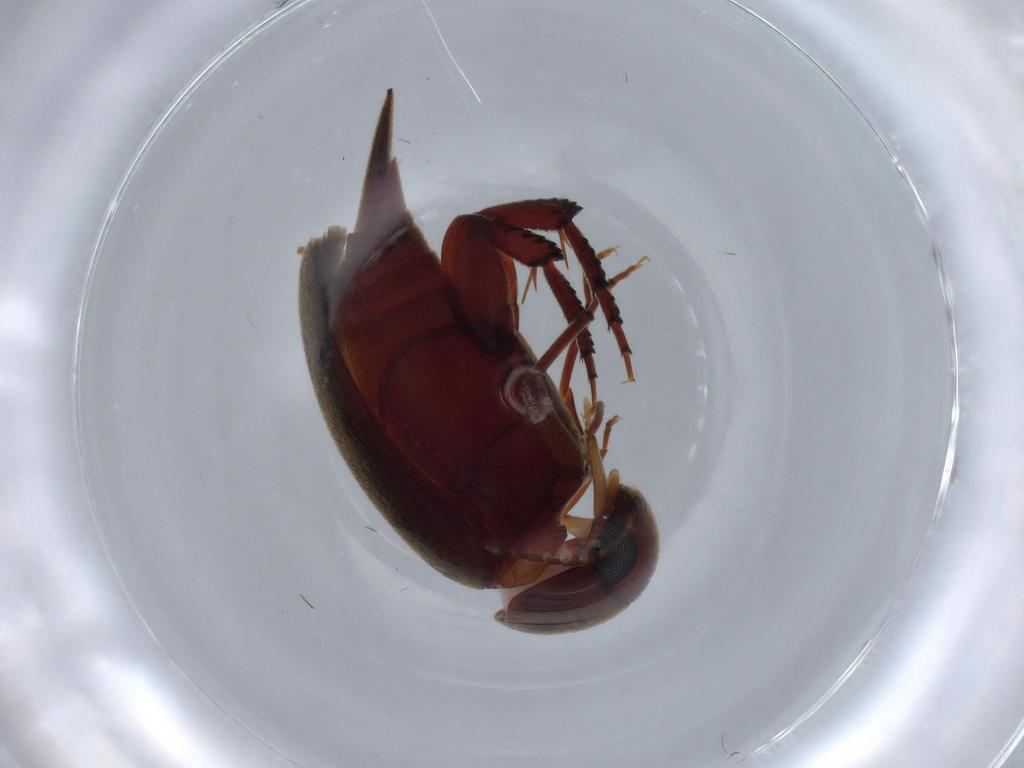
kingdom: Animalia
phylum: Arthropoda
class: Insecta
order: Coleoptera
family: Mordellidae
